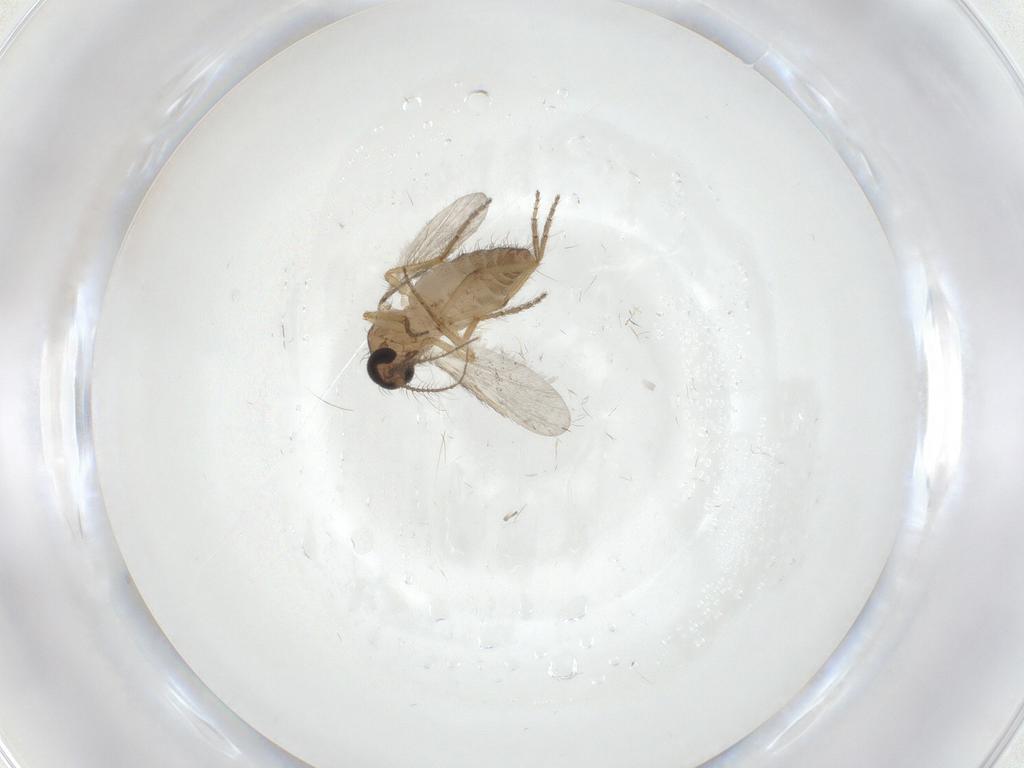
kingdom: Animalia
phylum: Arthropoda
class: Insecta
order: Diptera
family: Ceratopogonidae
